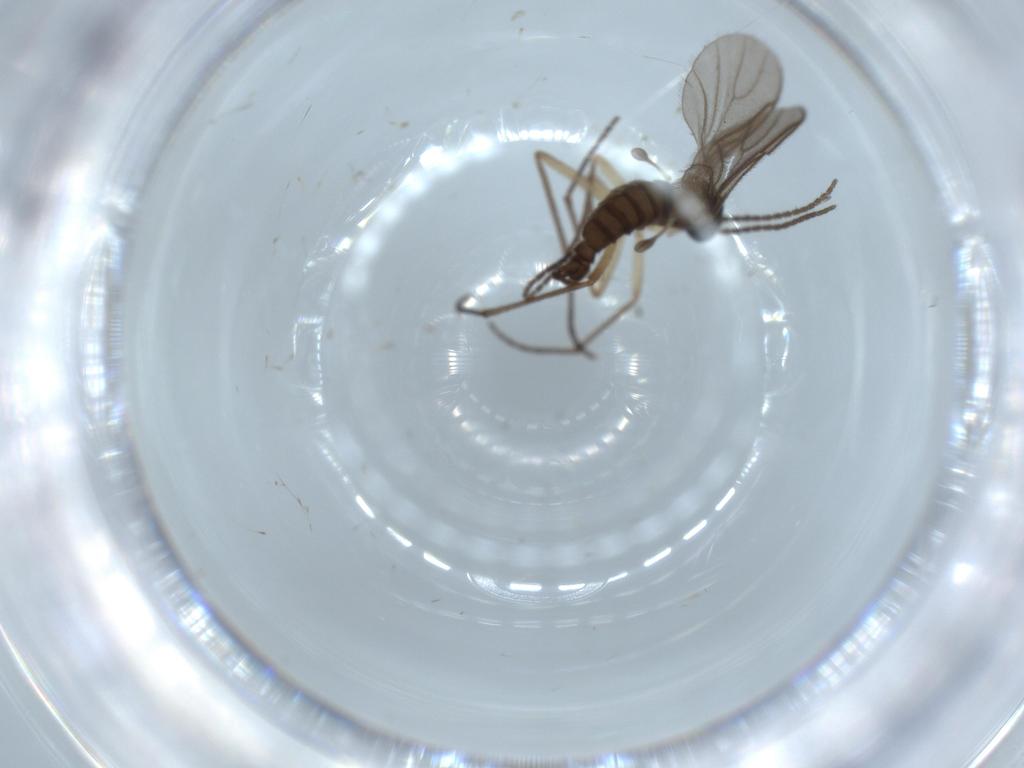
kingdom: Animalia
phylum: Arthropoda
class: Insecta
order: Diptera
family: Sciaridae
